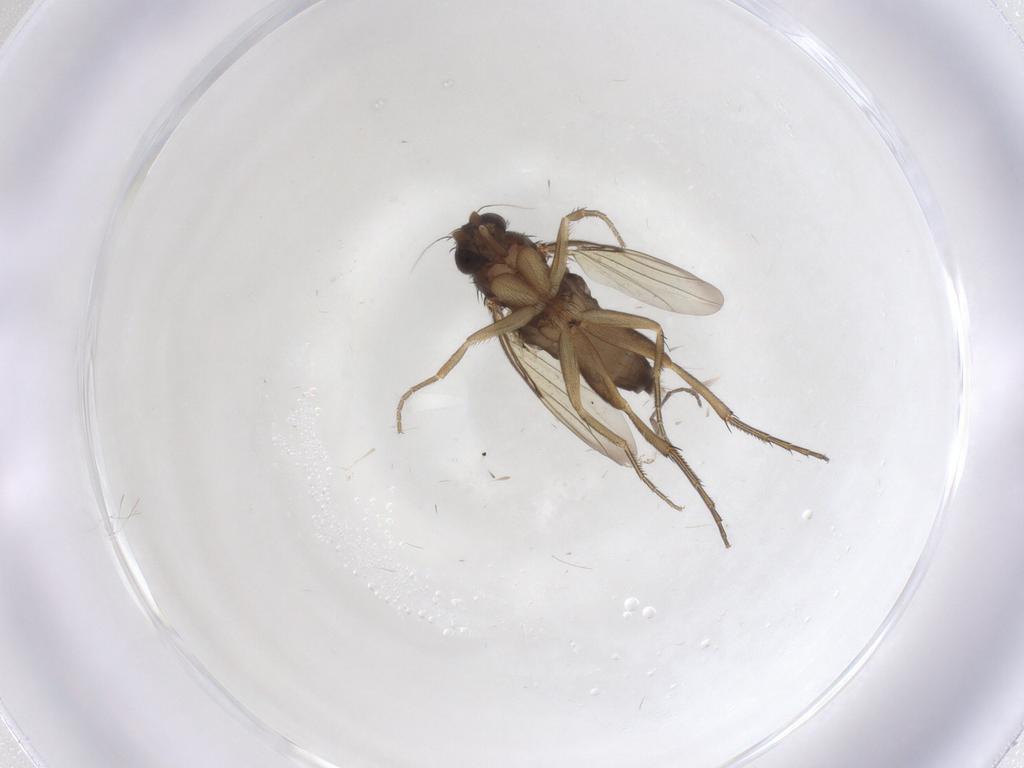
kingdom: Animalia
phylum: Arthropoda
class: Insecta
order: Diptera
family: Phoridae
